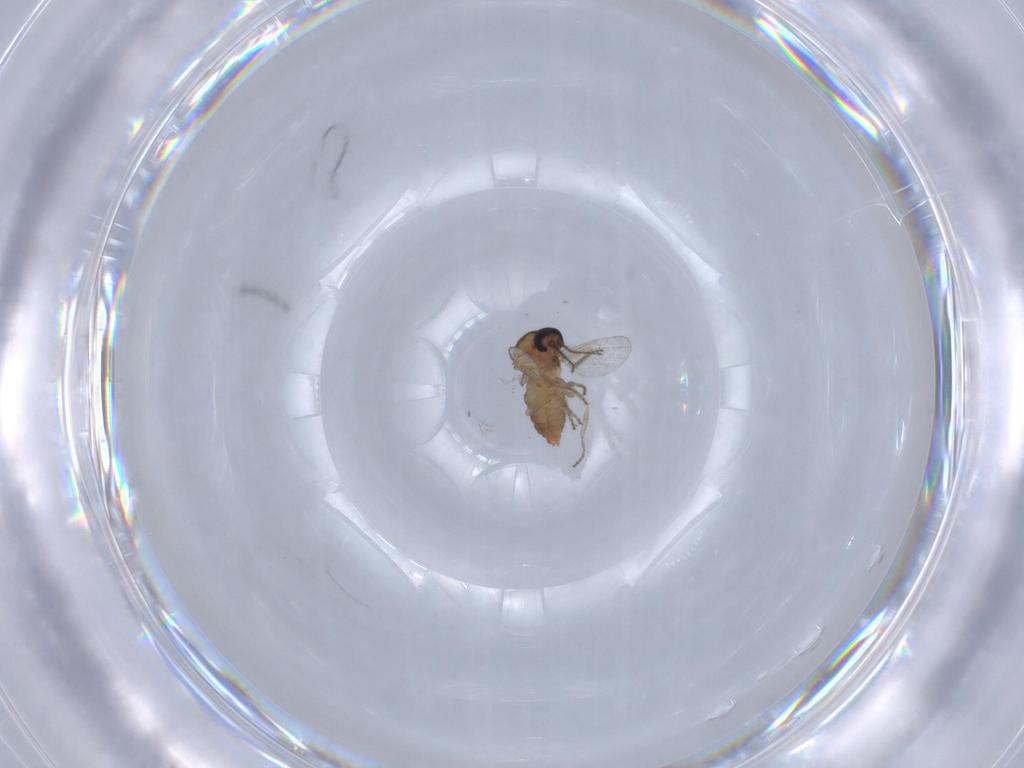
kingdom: Animalia
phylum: Arthropoda
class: Insecta
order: Diptera
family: Ceratopogonidae
